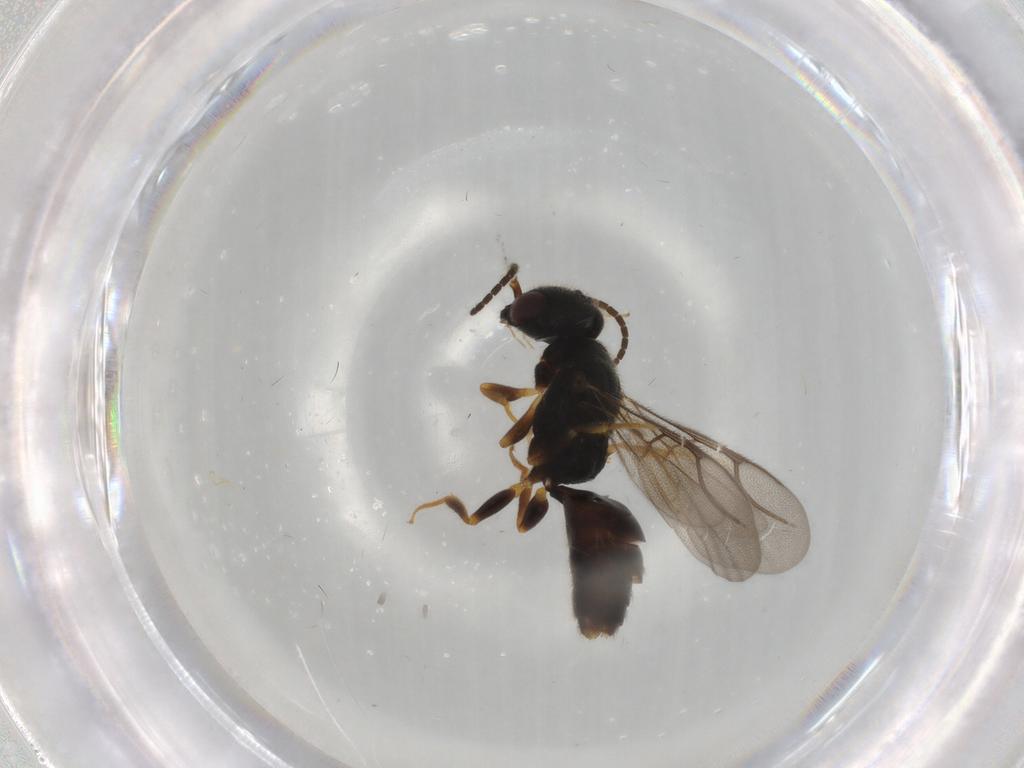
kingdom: Animalia
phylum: Arthropoda
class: Insecta
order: Hymenoptera
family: Bethylidae
